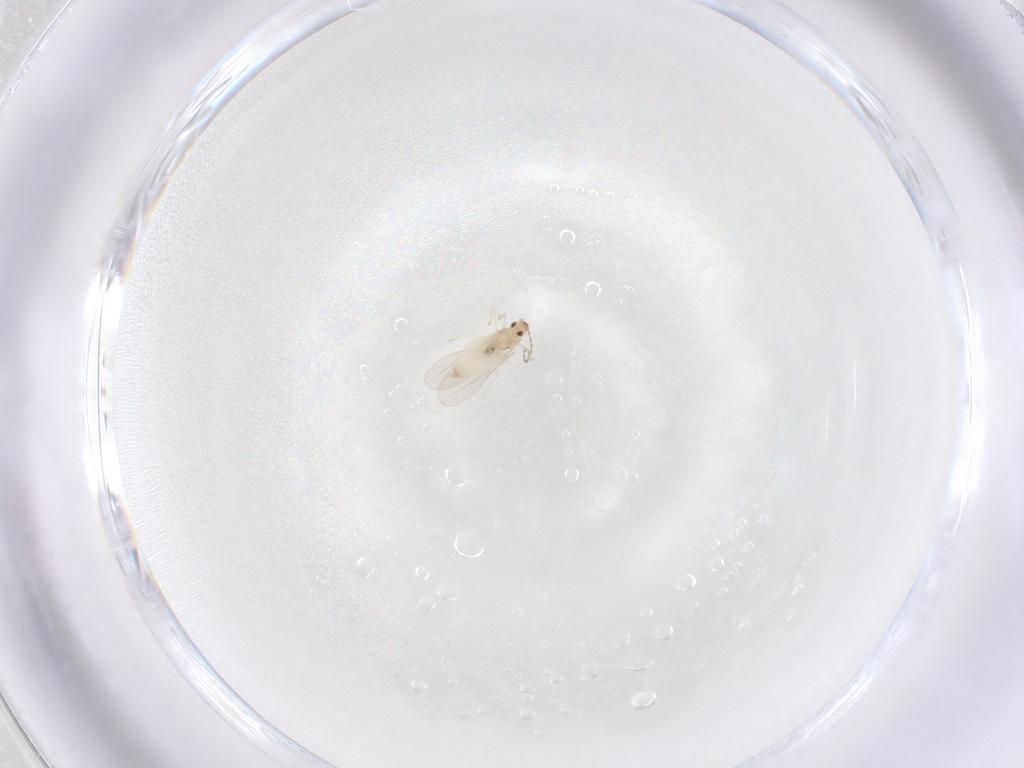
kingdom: Animalia
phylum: Arthropoda
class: Insecta
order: Diptera
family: Cecidomyiidae
